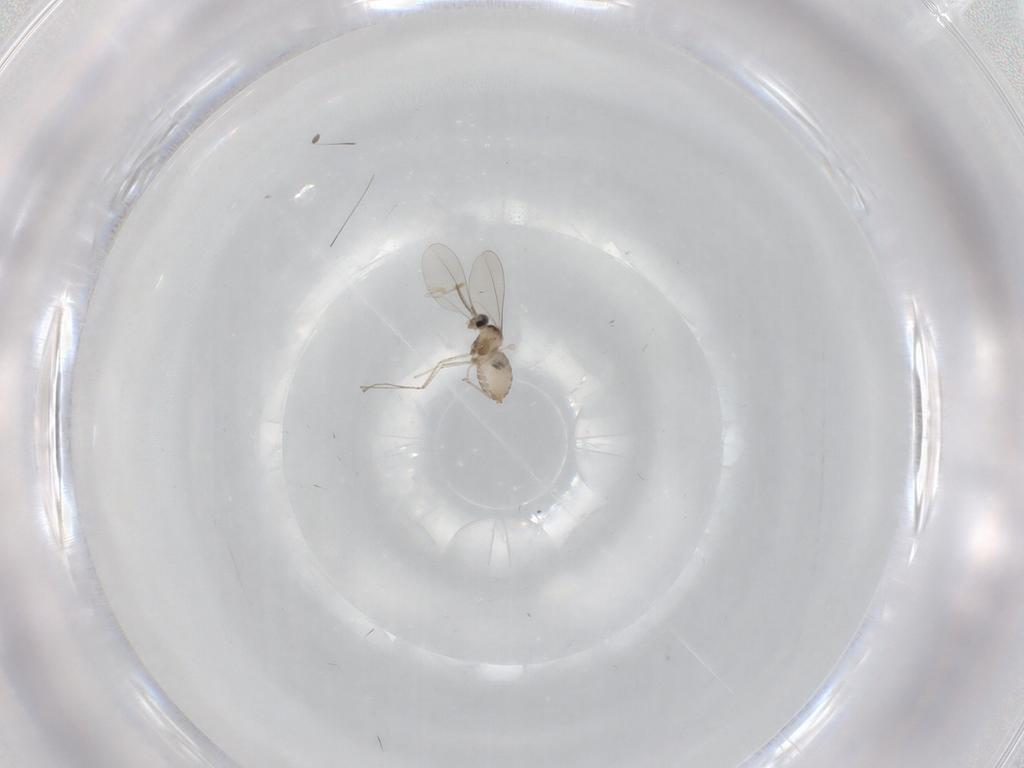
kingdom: Animalia
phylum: Arthropoda
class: Insecta
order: Diptera
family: Cecidomyiidae
